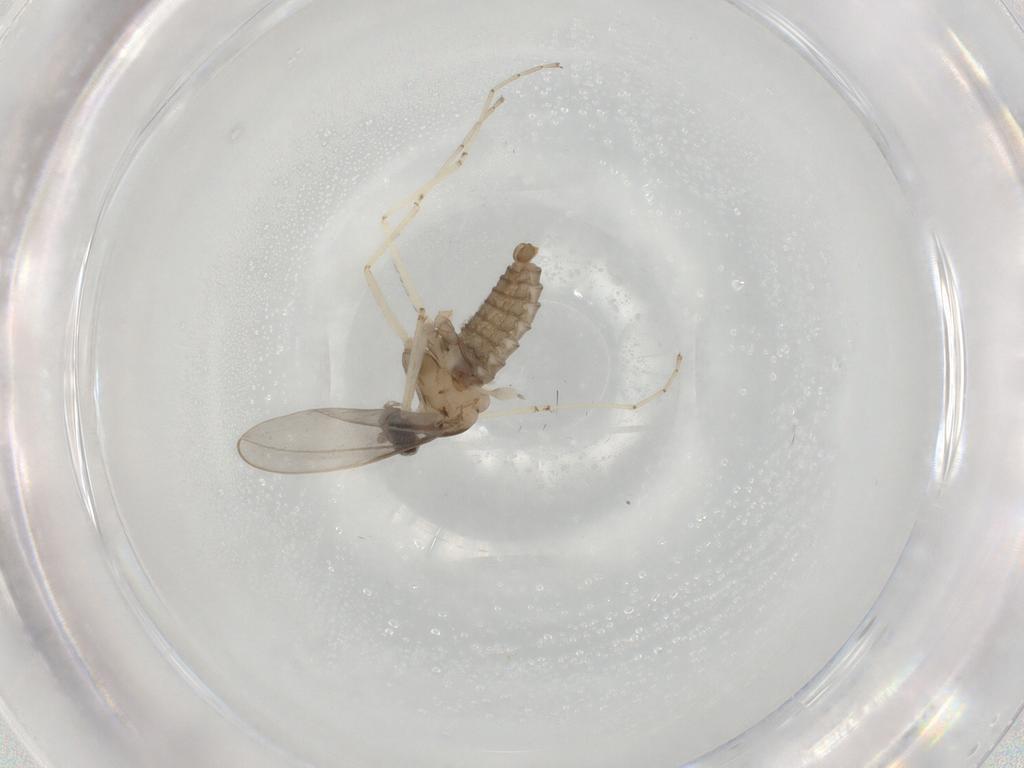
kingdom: Animalia
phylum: Arthropoda
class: Insecta
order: Diptera
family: Cecidomyiidae
